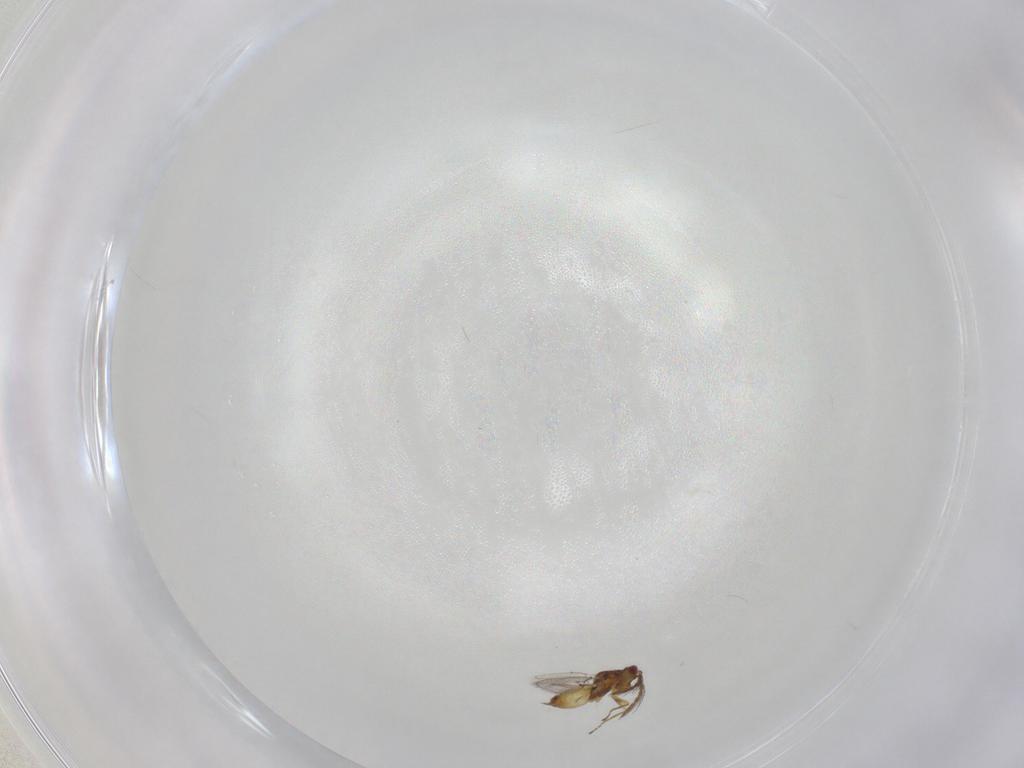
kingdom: Animalia
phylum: Arthropoda
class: Insecta
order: Hymenoptera
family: Eulophidae
